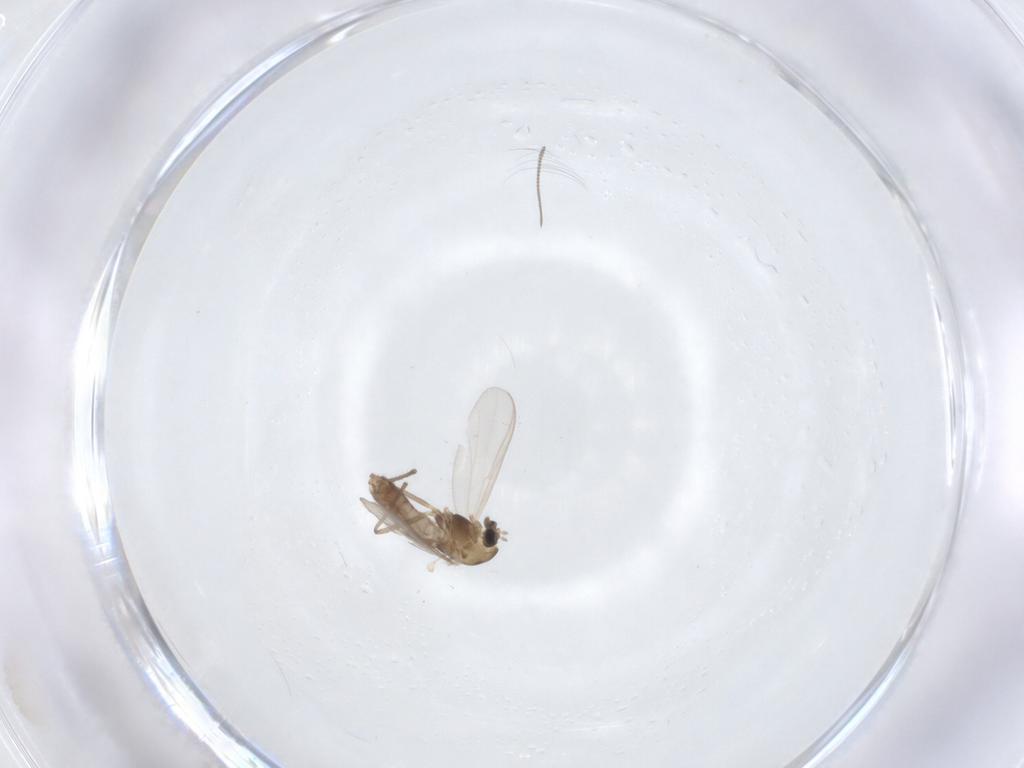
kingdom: Animalia
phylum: Arthropoda
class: Insecta
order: Diptera
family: Chironomidae
